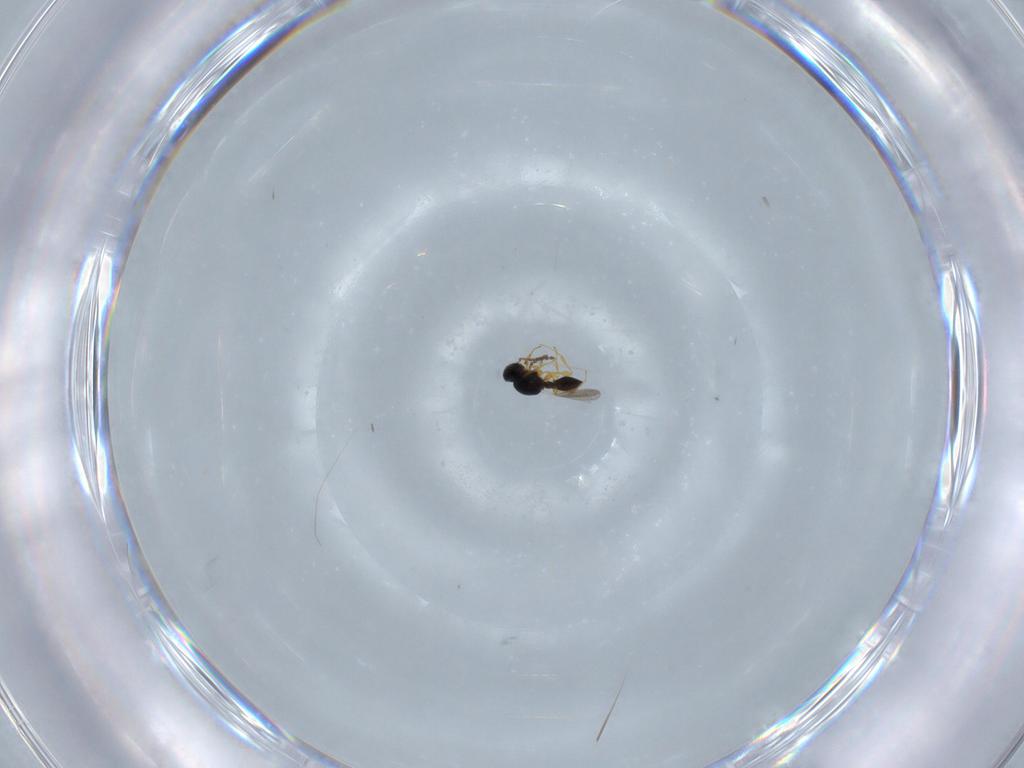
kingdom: Animalia
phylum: Arthropoda
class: Insecta
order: Hymenoptera
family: Platygastridae
